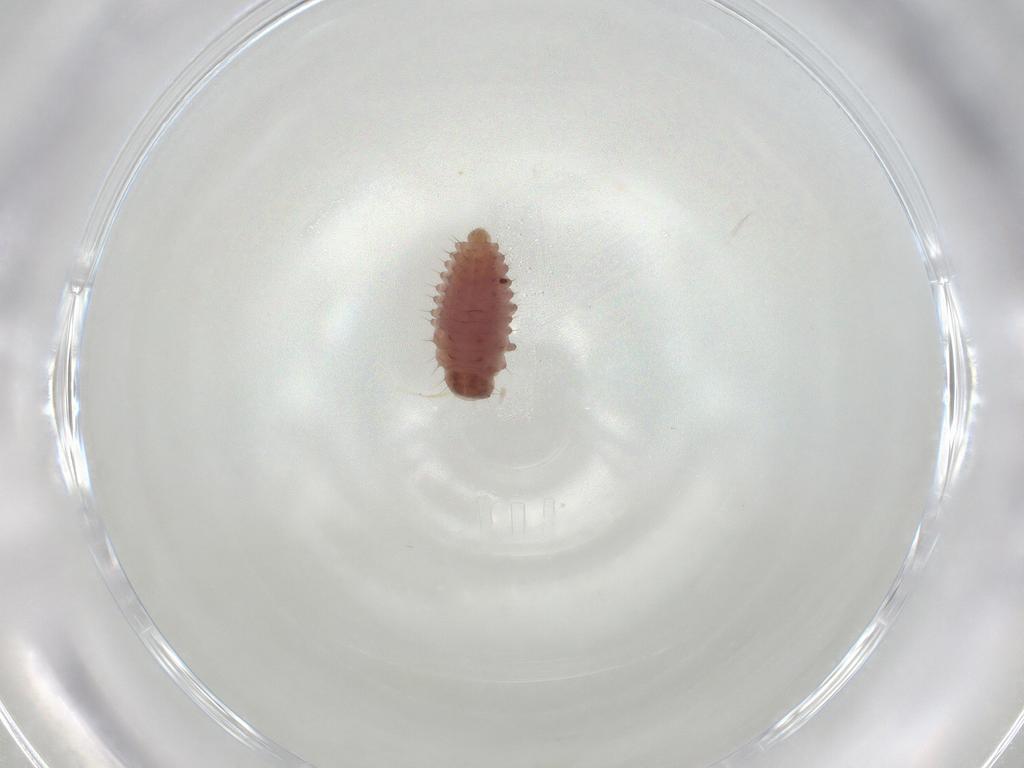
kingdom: Animalia
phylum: Arthropoda
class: Insecta
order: Coleoptera
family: Coccinellidae
